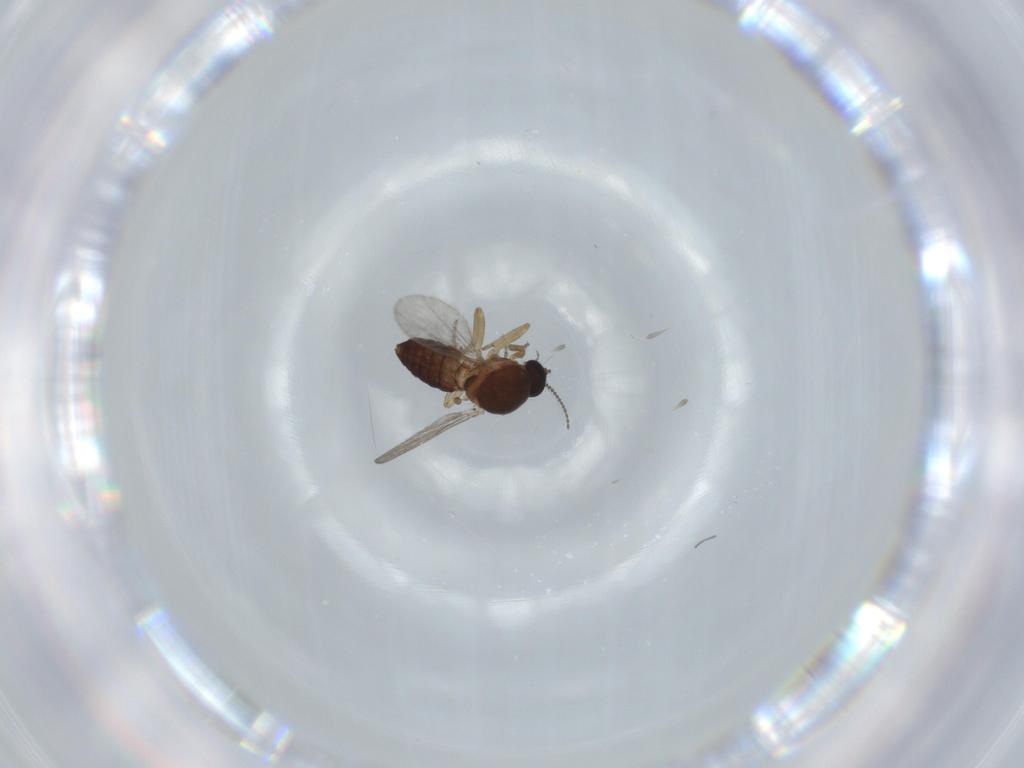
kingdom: Animalia
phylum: Arthropoda
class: Insecta
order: Diptera
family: Ceratopogonidae
